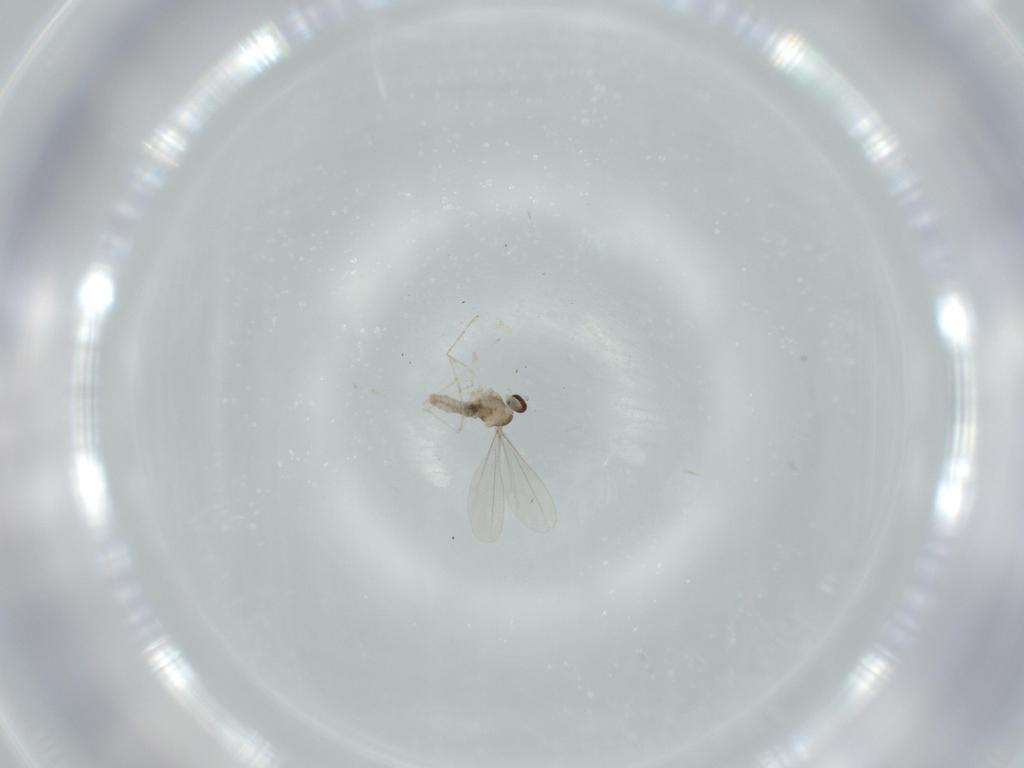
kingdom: Animalia
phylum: Arthropoda
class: Insecta
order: Diptera
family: Cecidomyiidae
